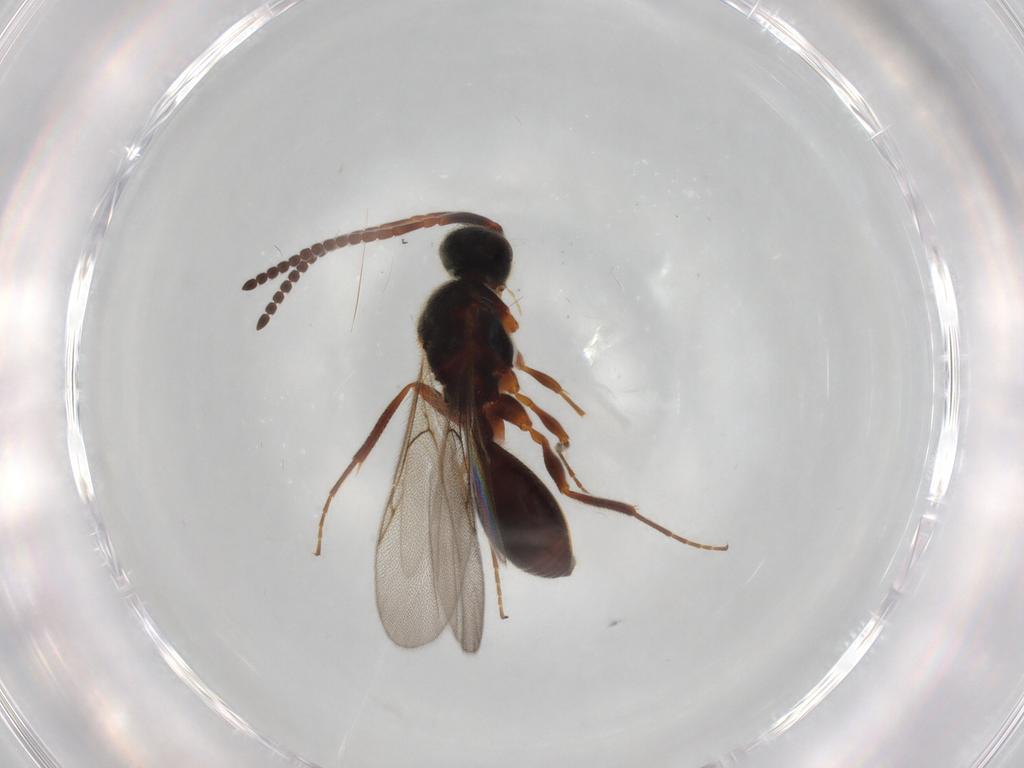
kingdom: Animalia
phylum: Arthropoda
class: Insecta
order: Hymenoptera
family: Diapriidae
